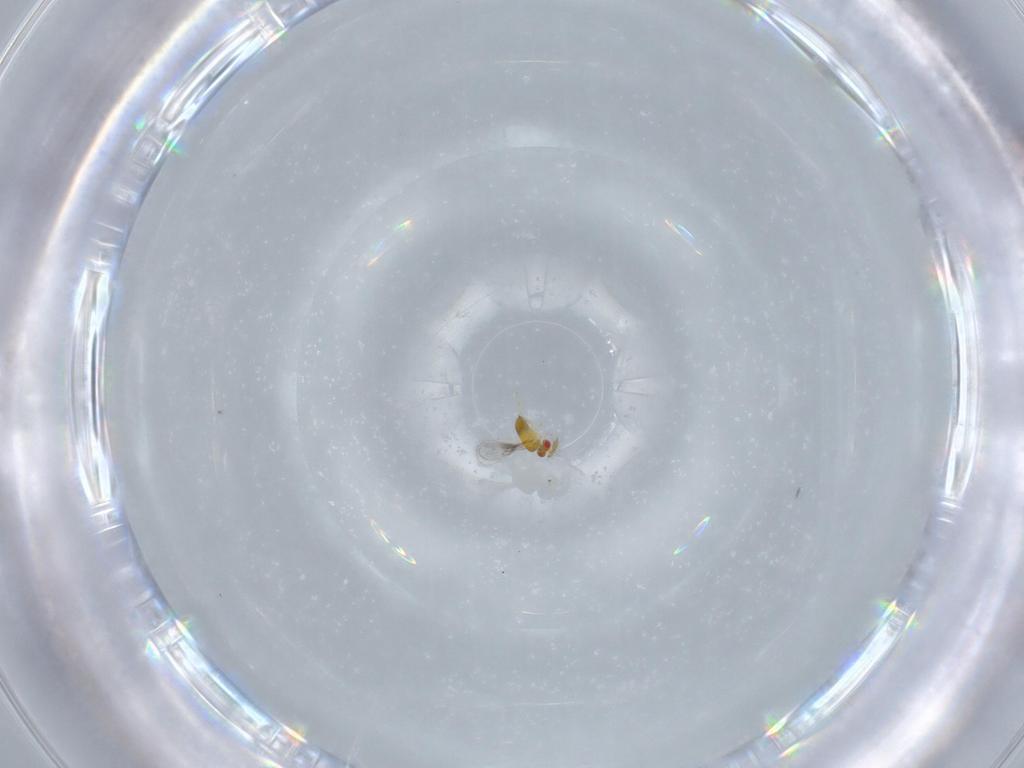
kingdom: Animalia
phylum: Arthropoda
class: Insecta
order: Hymenoptera
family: Trichogrammatidae
